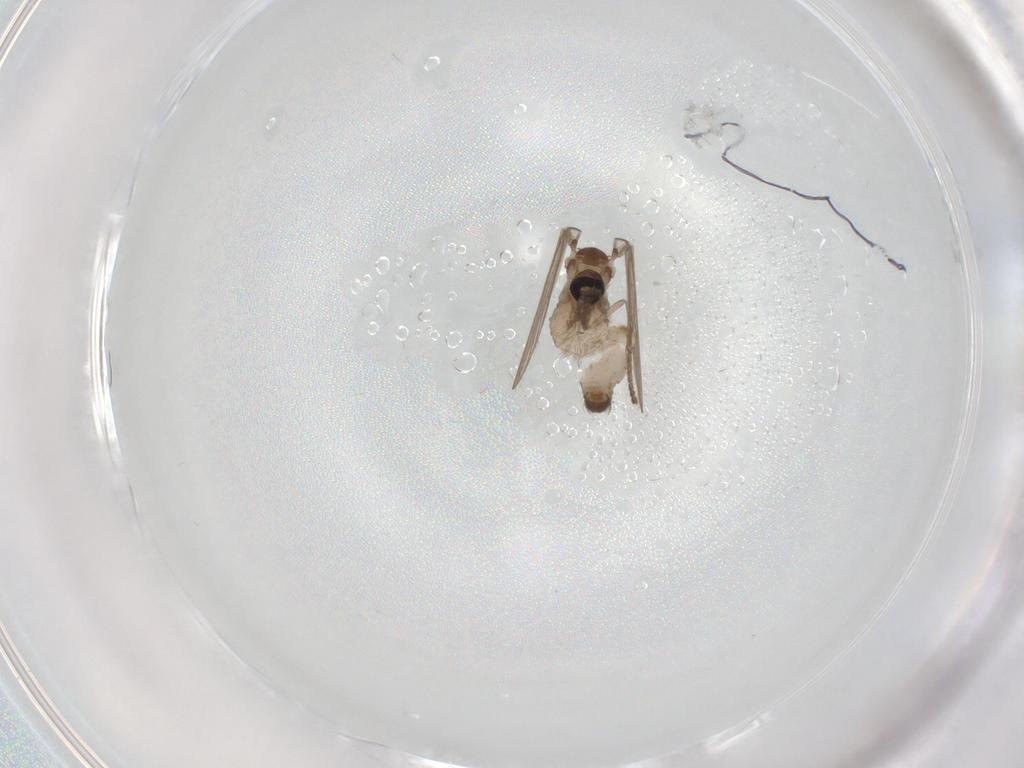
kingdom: Animalia
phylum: Arthropoda
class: Insecta
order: Diptera
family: Psychodidae
